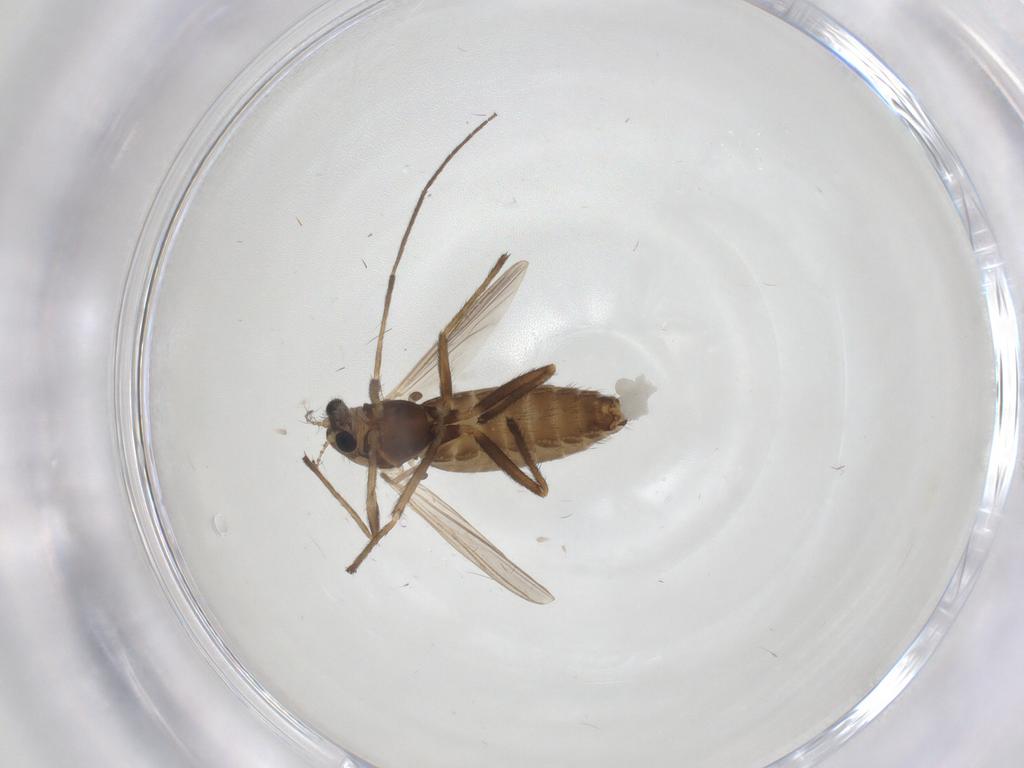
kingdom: Animalia
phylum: Arthropoda
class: Insecta
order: Diptera
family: Chironomidae
